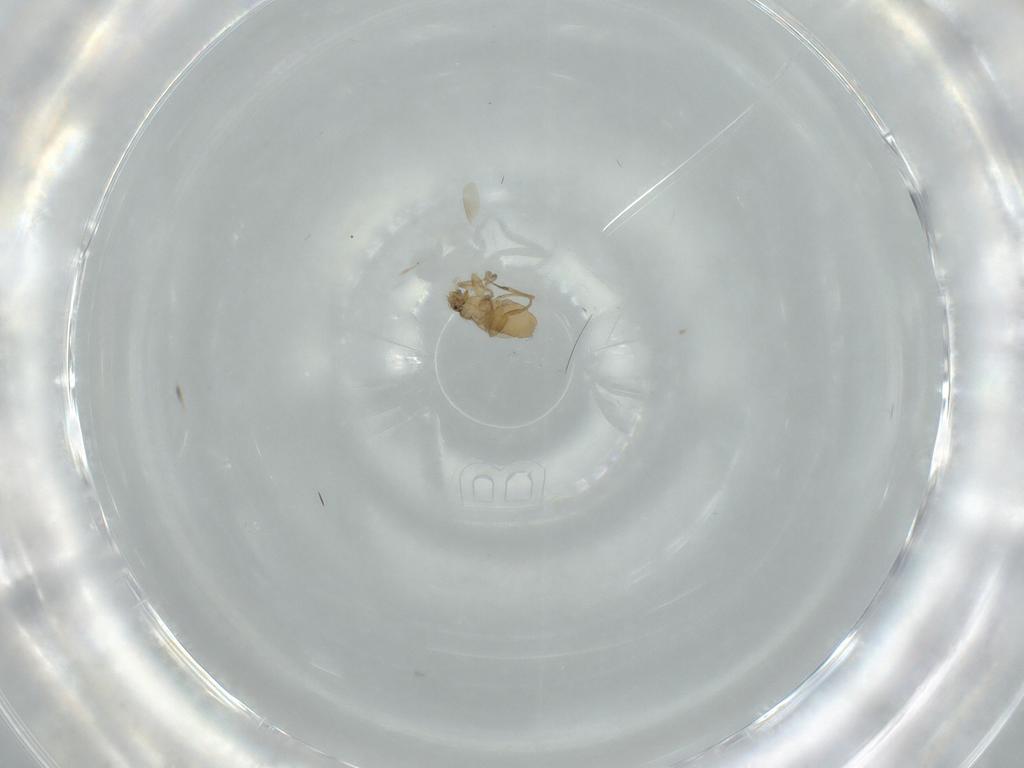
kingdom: Animalia
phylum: Arthropoda
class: Insecta
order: Diptera
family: Phoridae
